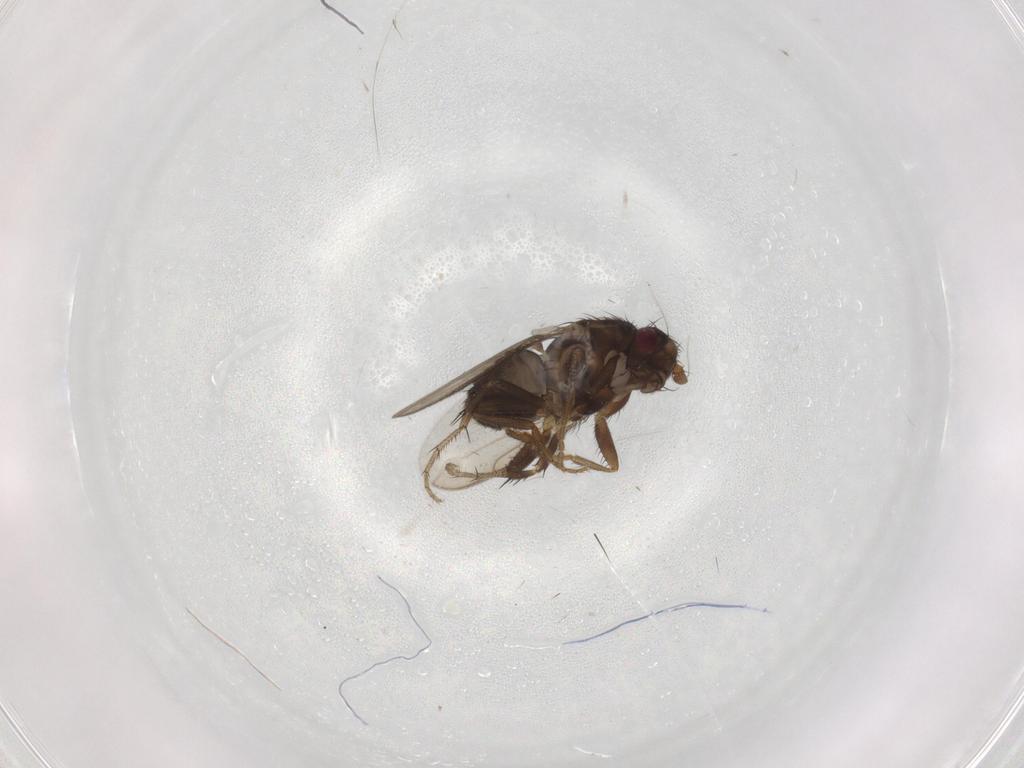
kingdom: Animalia
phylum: Arthropoda
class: Insecta
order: Diptera
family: Sphaeroceridae
